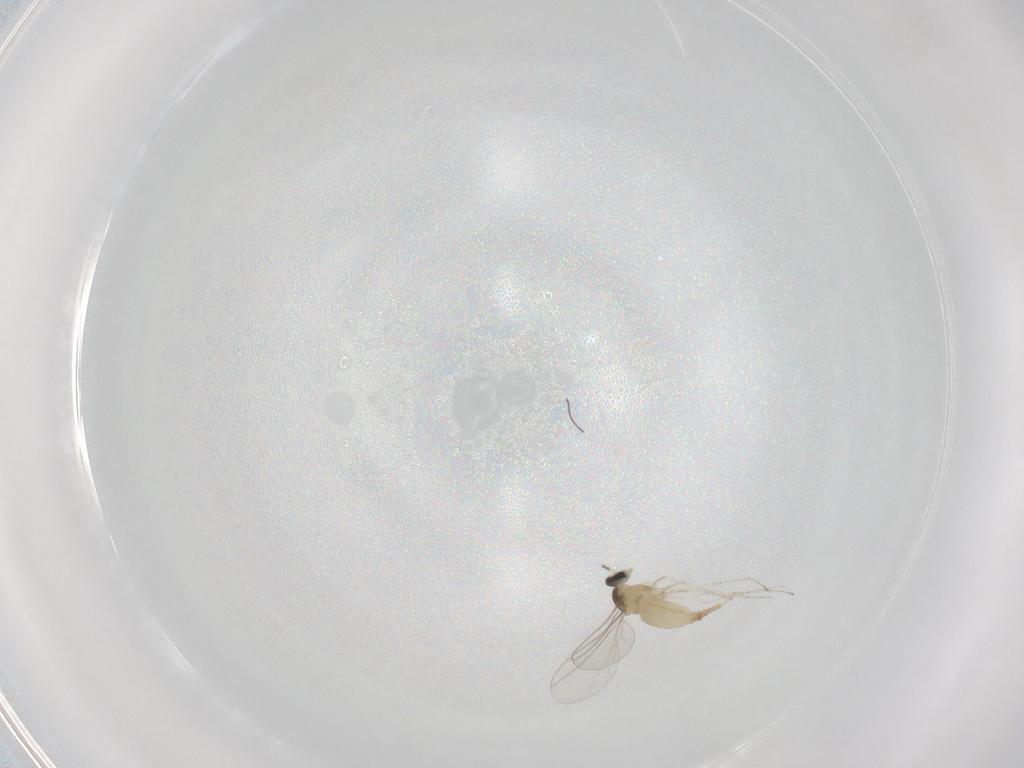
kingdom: Animalia
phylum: Arthropoda
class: Insecta
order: Diptera
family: Cecidomyiidae
